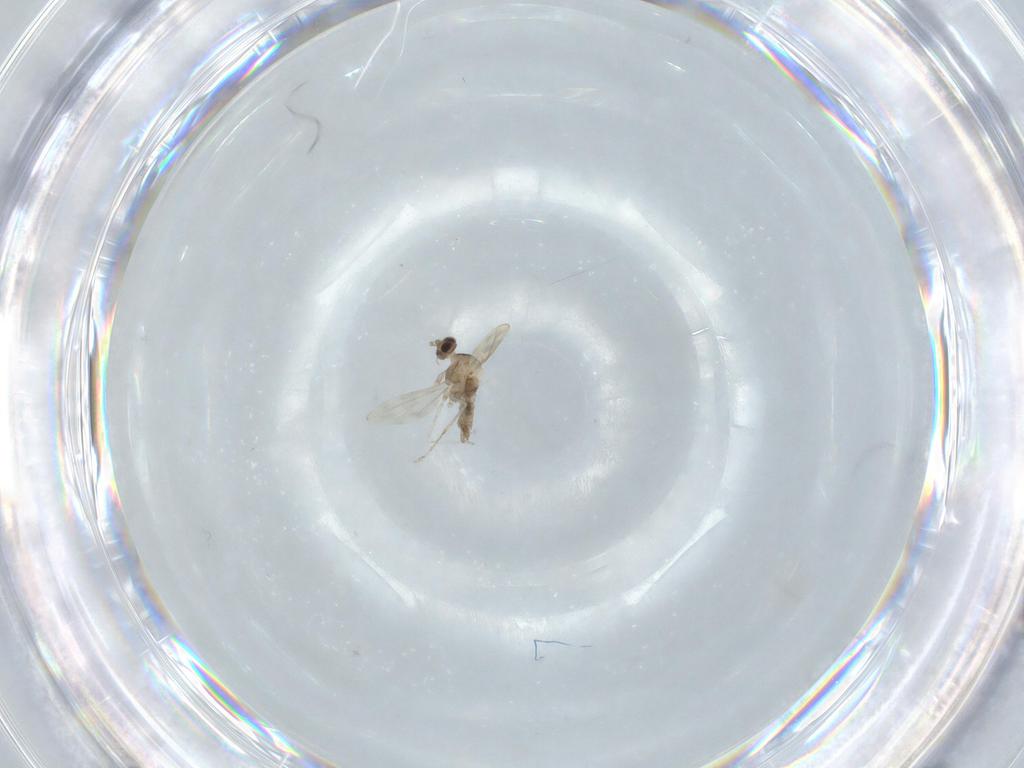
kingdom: Animalia
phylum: Arthropoda
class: Insecta
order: Diptera
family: Cecidomyiidae
